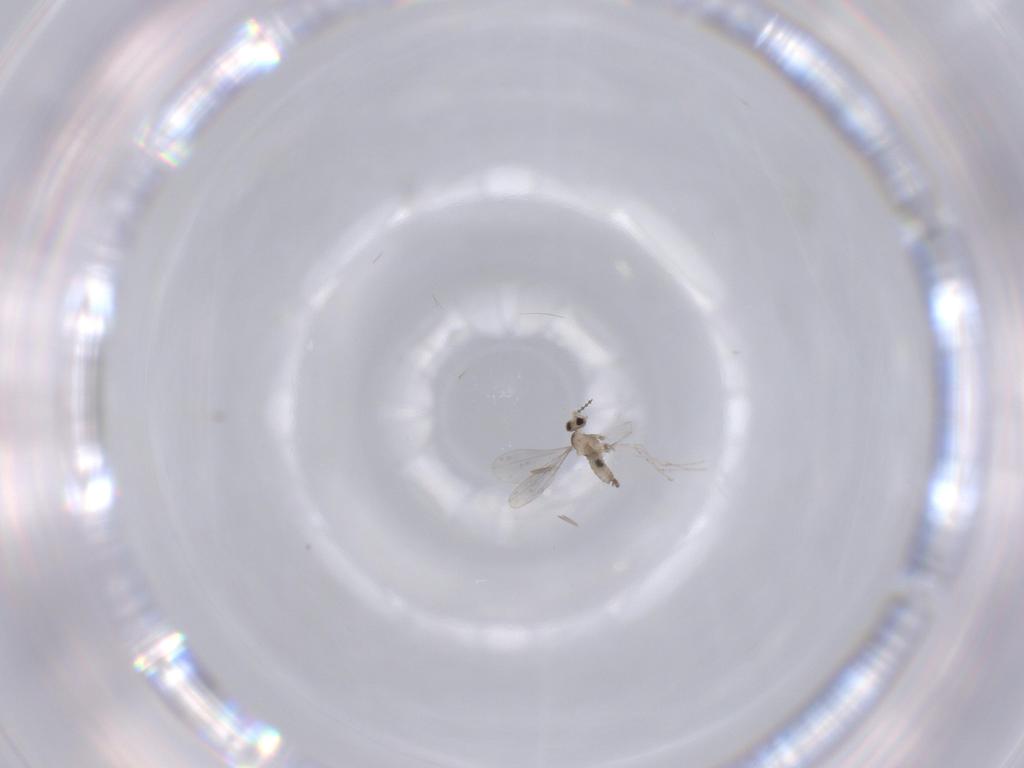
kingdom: Animalia
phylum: Arthropoda
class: Insecta
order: Diptera
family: Cecidomyiidae
